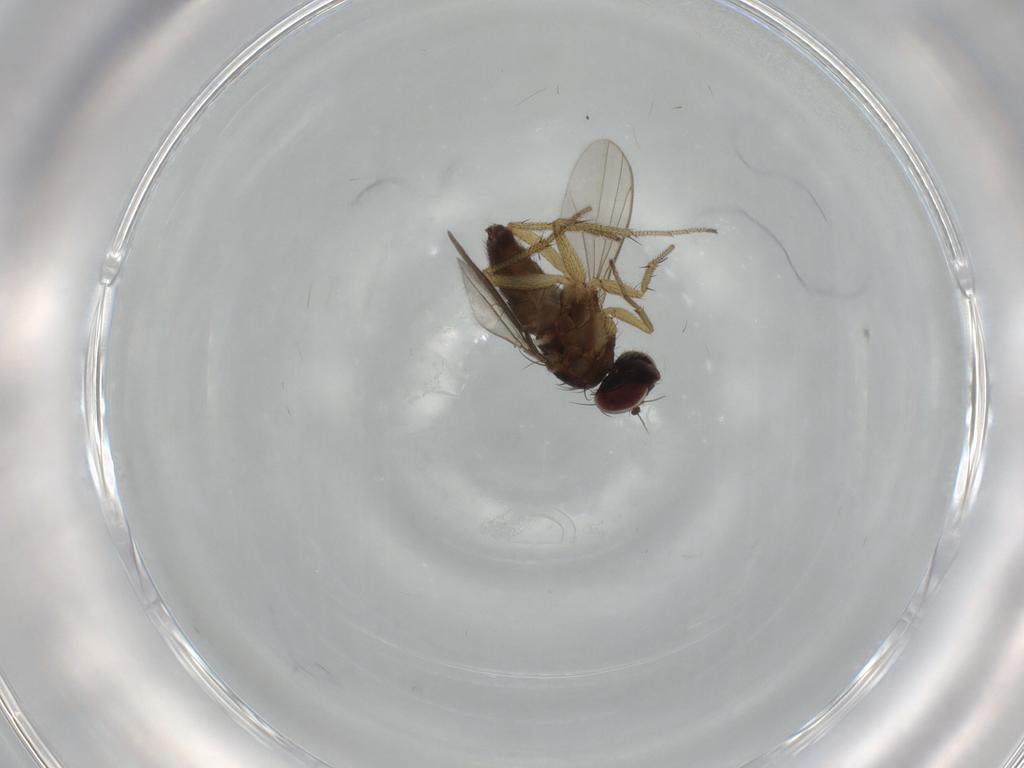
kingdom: Animalia
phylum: Arthropoda
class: Insecta
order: Diptera
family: Dolichopodidae
